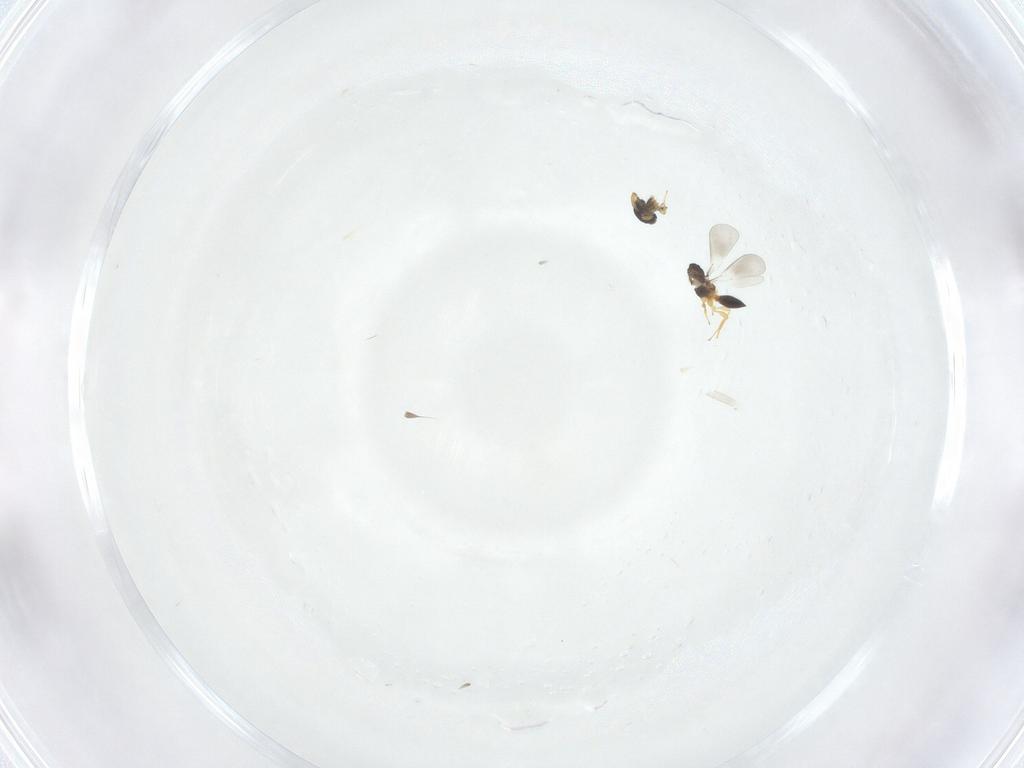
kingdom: Animalia
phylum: Arthropoda
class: Insecta
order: Hymenoptera
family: Platygastridae
